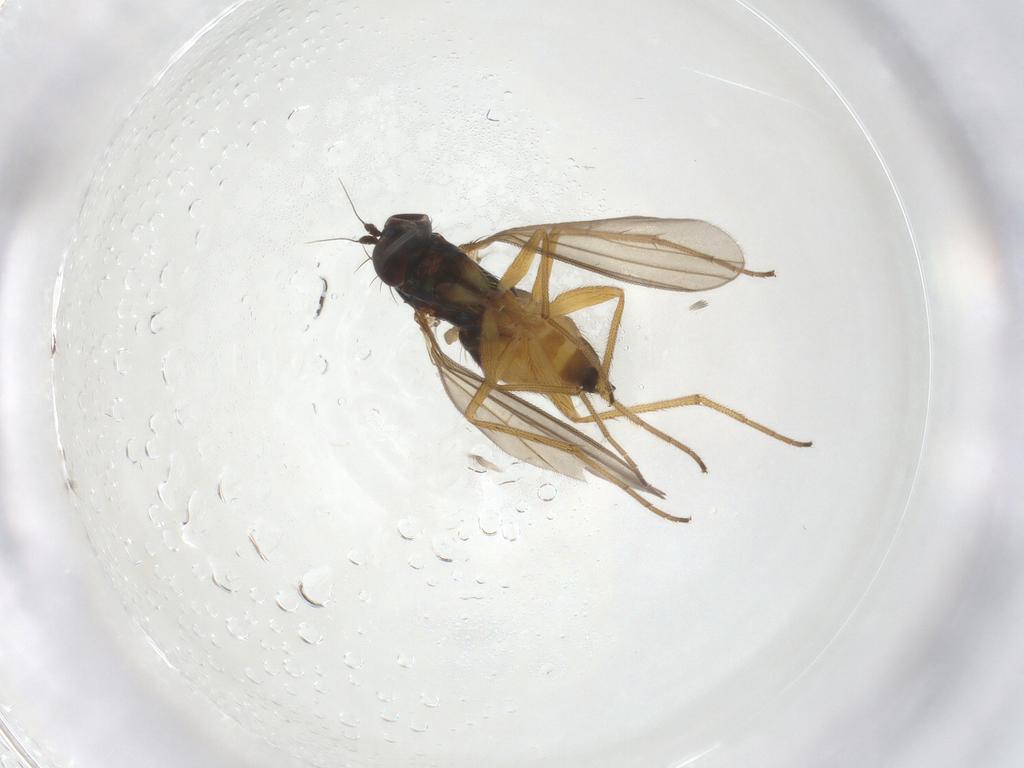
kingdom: Animalia
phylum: Arthropoda
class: Insecta
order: Diptera
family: Dolichopodidae
